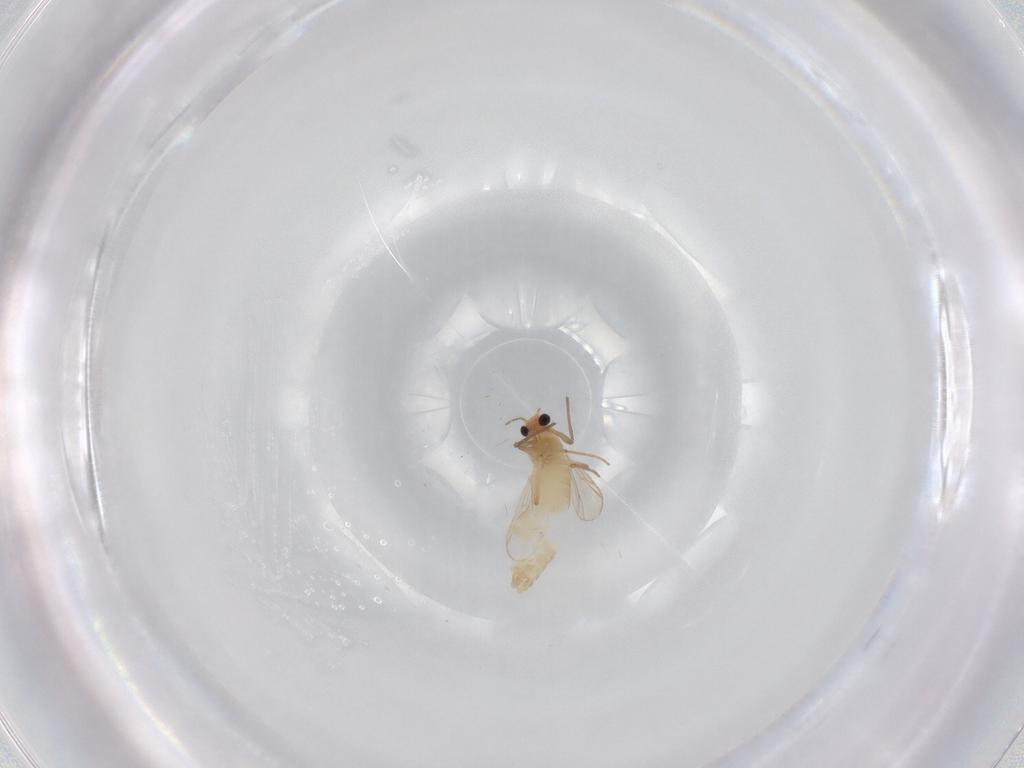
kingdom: Animalia
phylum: Arthropoda
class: Insecta
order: Diptera
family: Chironomidae
